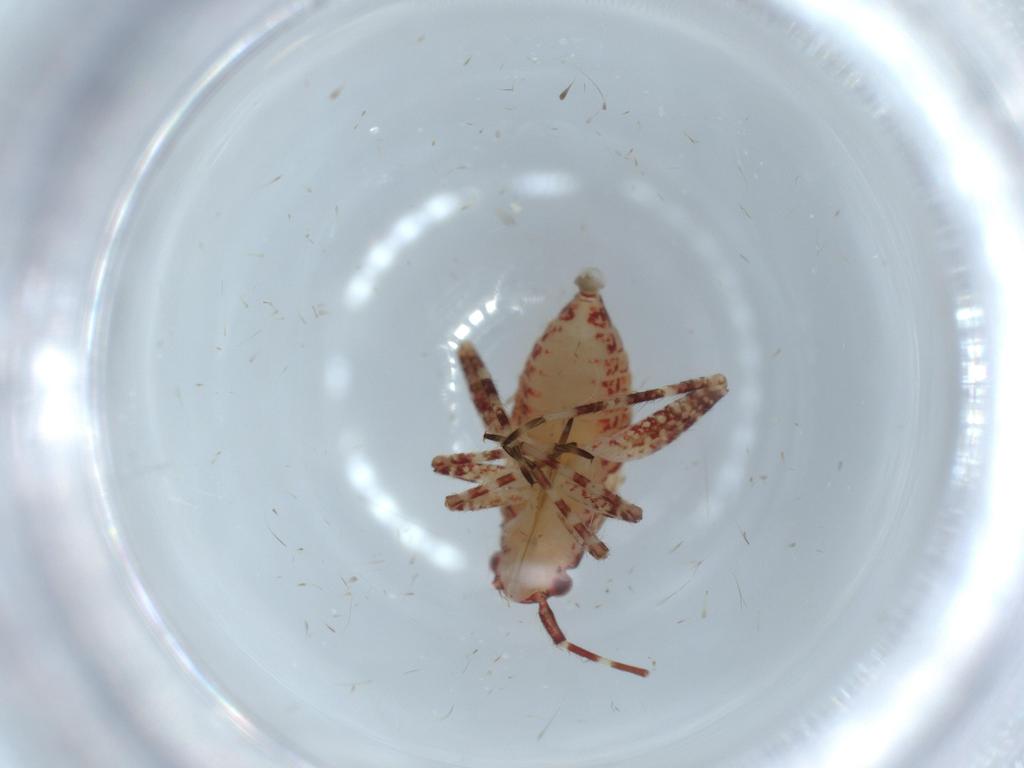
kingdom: Animalia
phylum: Arthropoda
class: Insecta
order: Hemiptera
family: Miridae
